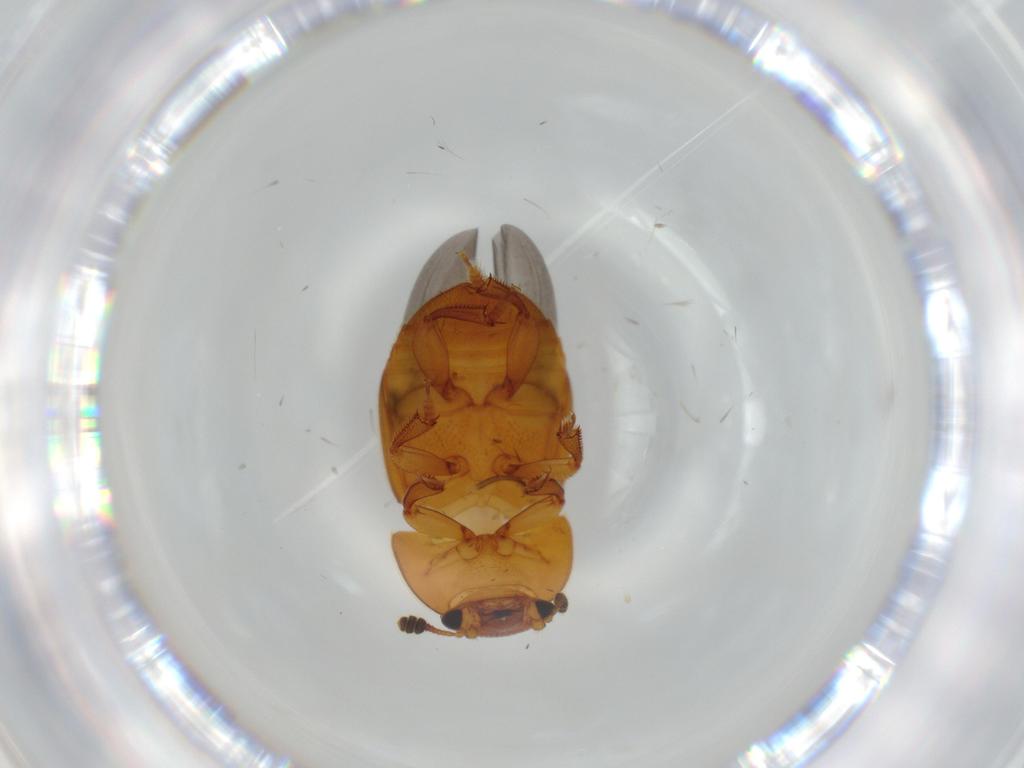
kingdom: Animalia
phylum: Arthropoda
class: Insecta
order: Coleoptera
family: Nitidulidae
